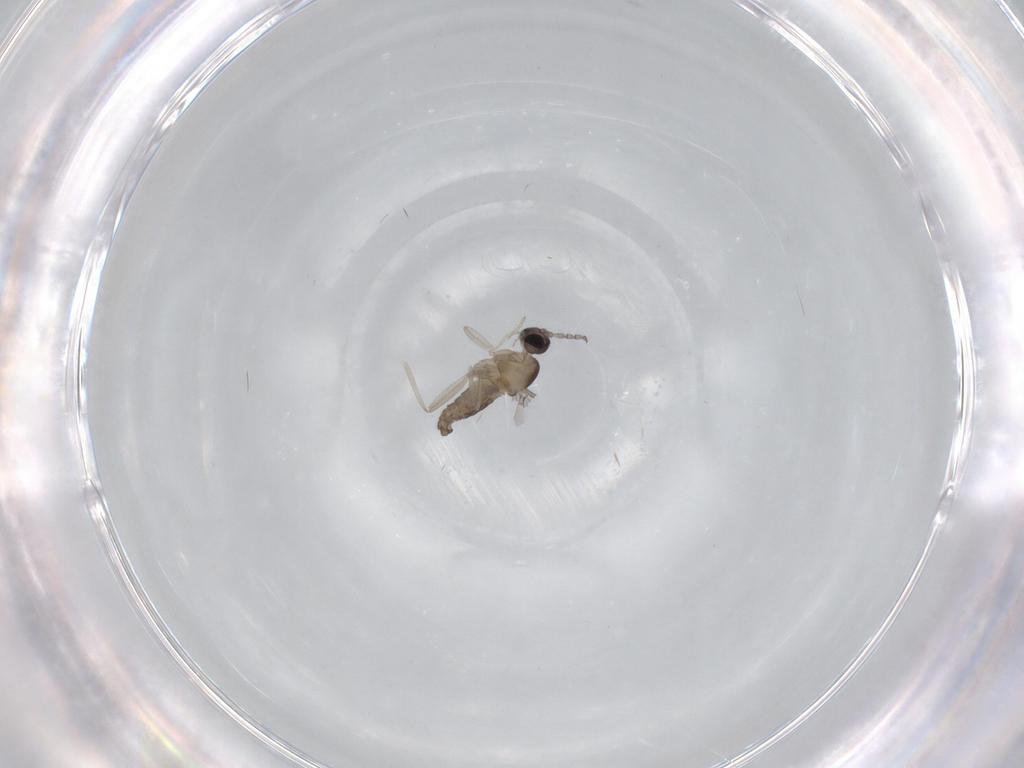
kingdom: Animalia
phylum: Arthropoda
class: Insecta
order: Diptera
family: Cecidomyiidae
